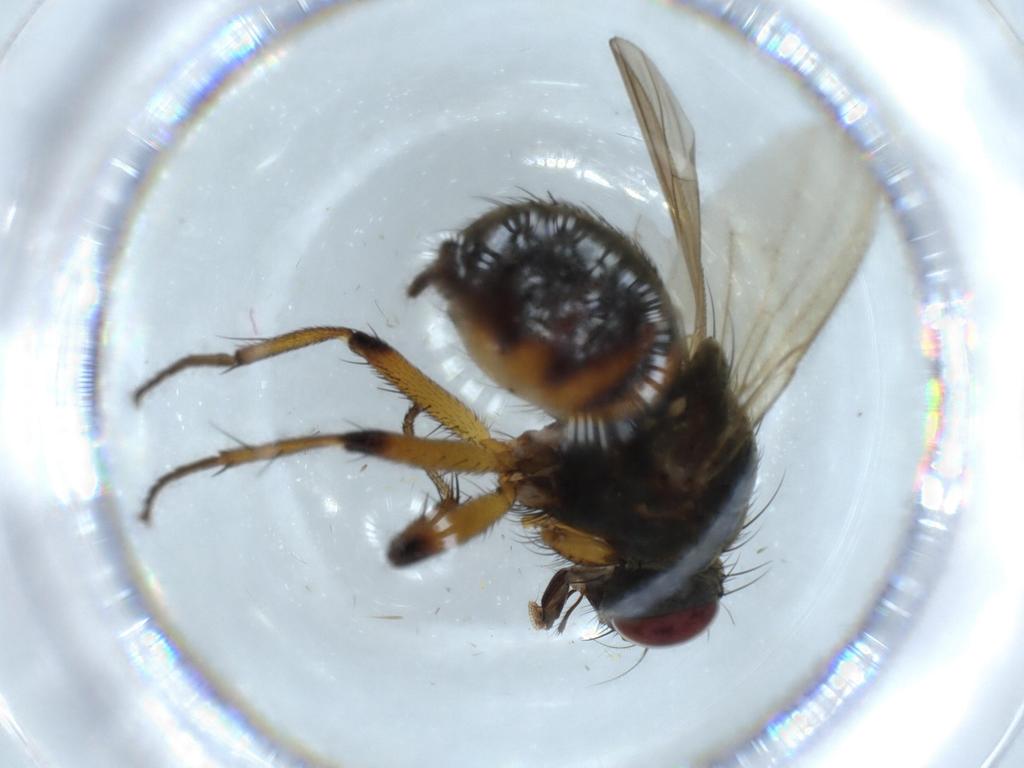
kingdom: Animalia
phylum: Arthropoda
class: Insecta
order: Diptera
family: Muscidae
